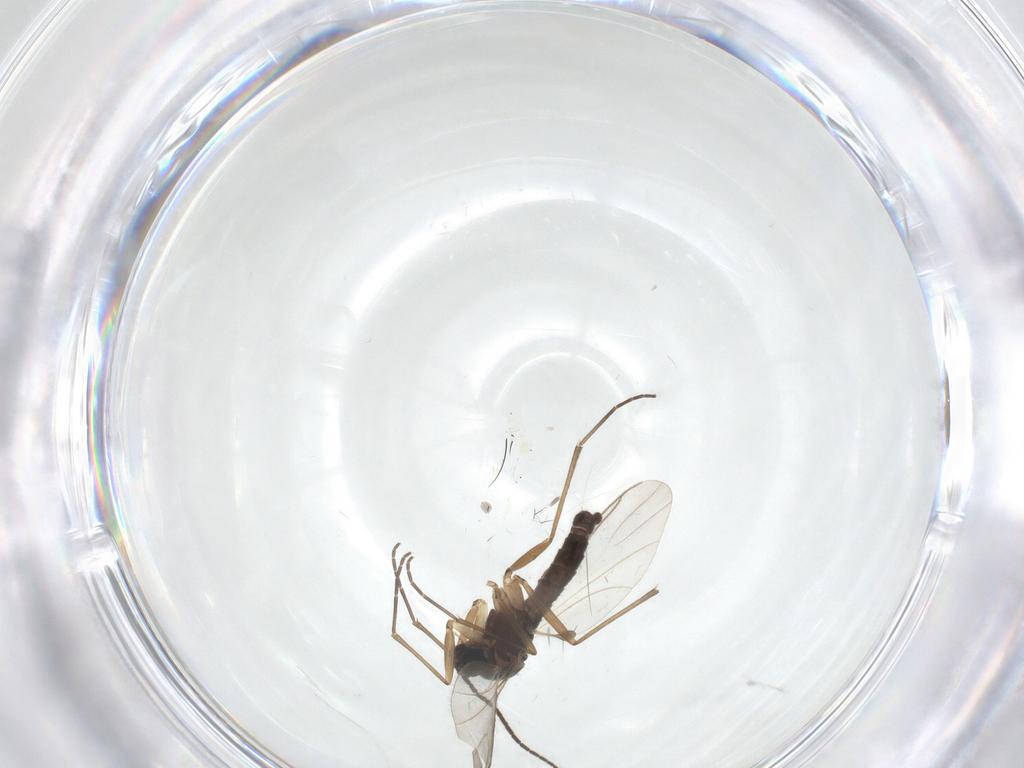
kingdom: Animalia
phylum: Arthropoda
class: Insecta
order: Diptera
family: Sciaridae
